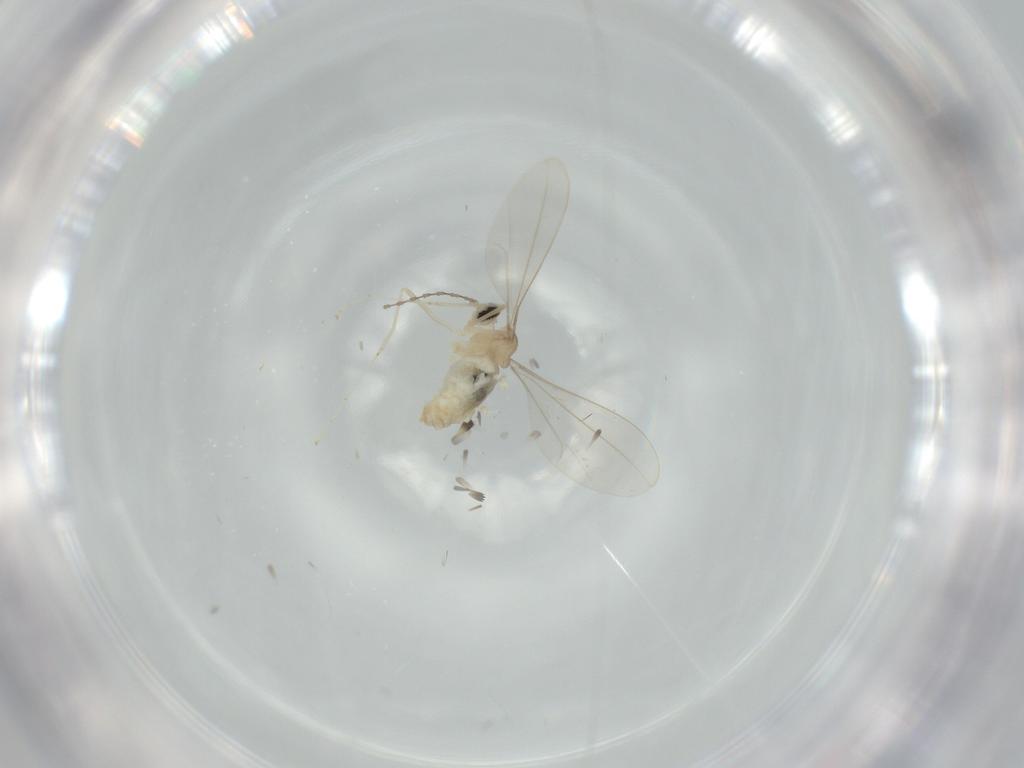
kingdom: Animalia
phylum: Arthropoda
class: Insecta
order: Diptera
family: Cecidomyiidae
